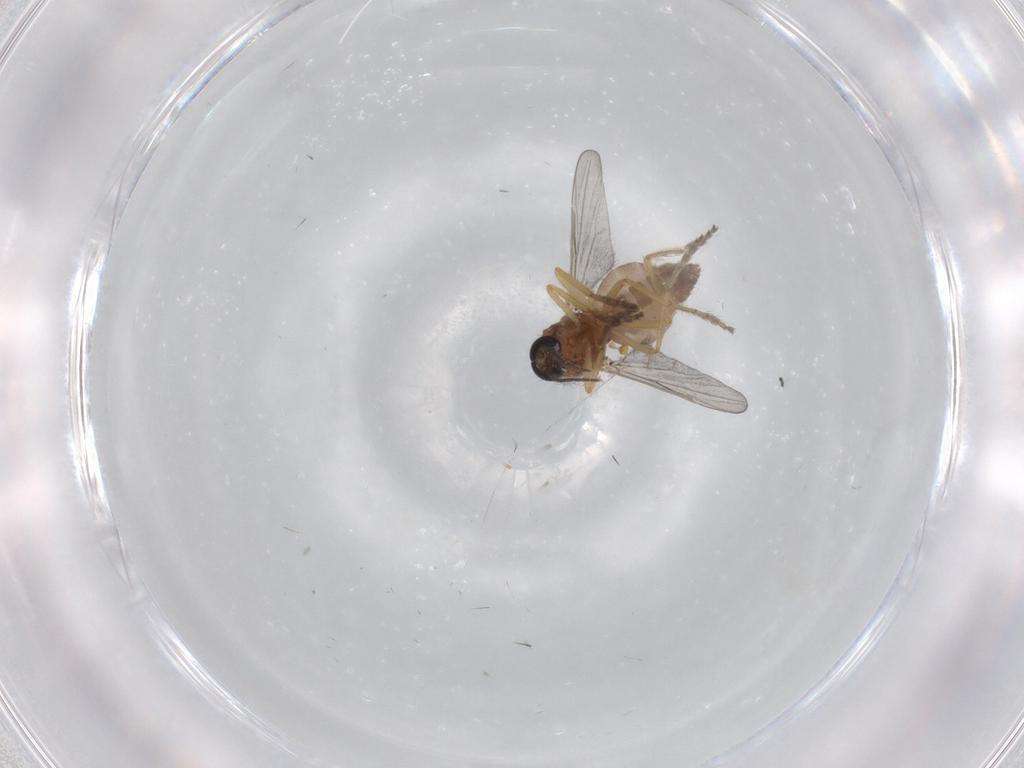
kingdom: Animalia
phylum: Arthropoda
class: Insecta
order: Diptera
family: Ceratopogonidae
